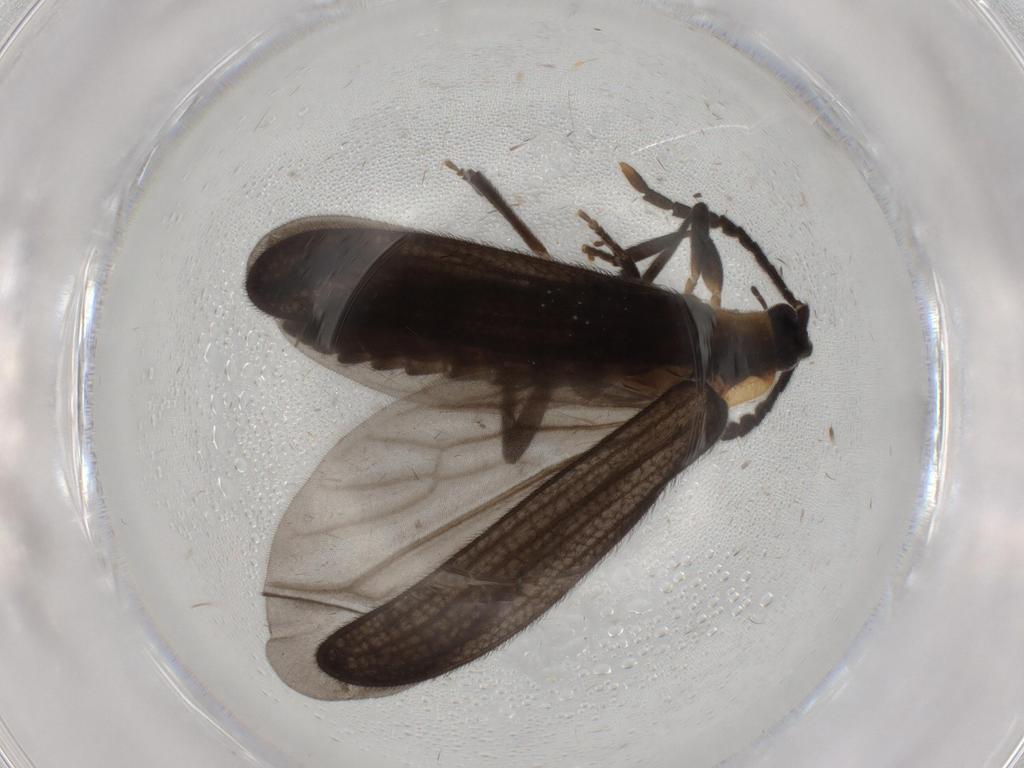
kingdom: Animalia
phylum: Arthropoda
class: Insecta
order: Coleoptera
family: Lycidae
